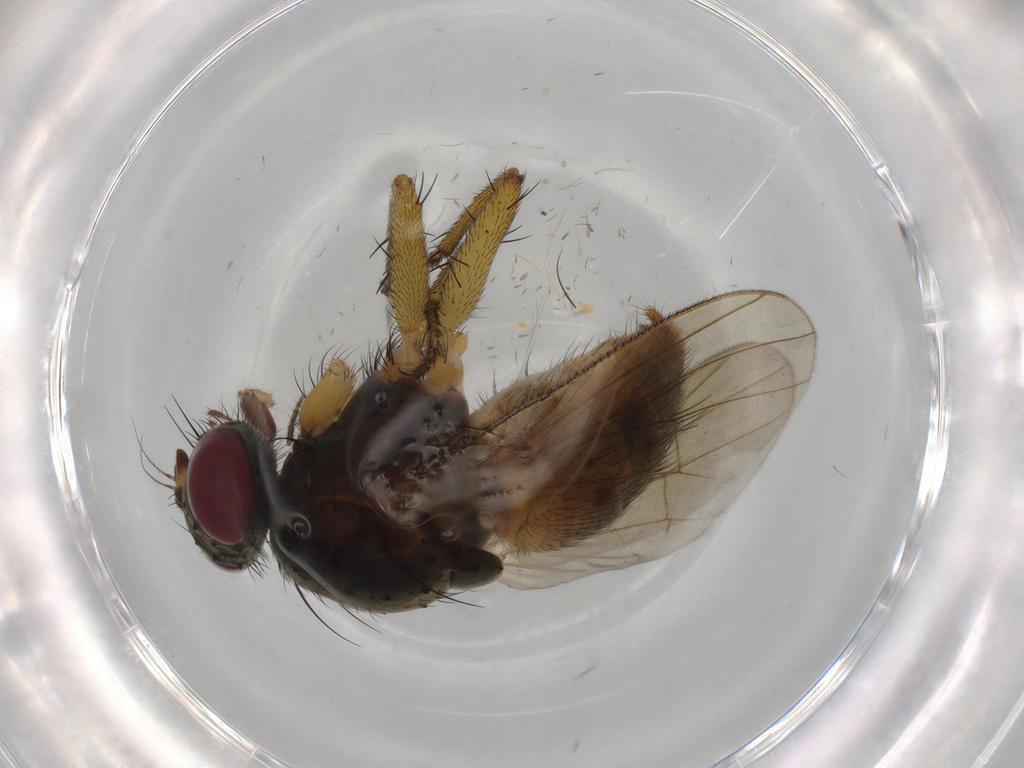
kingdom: Animalia
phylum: Arthropoda
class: Insecta
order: Diptera
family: Muscidae
